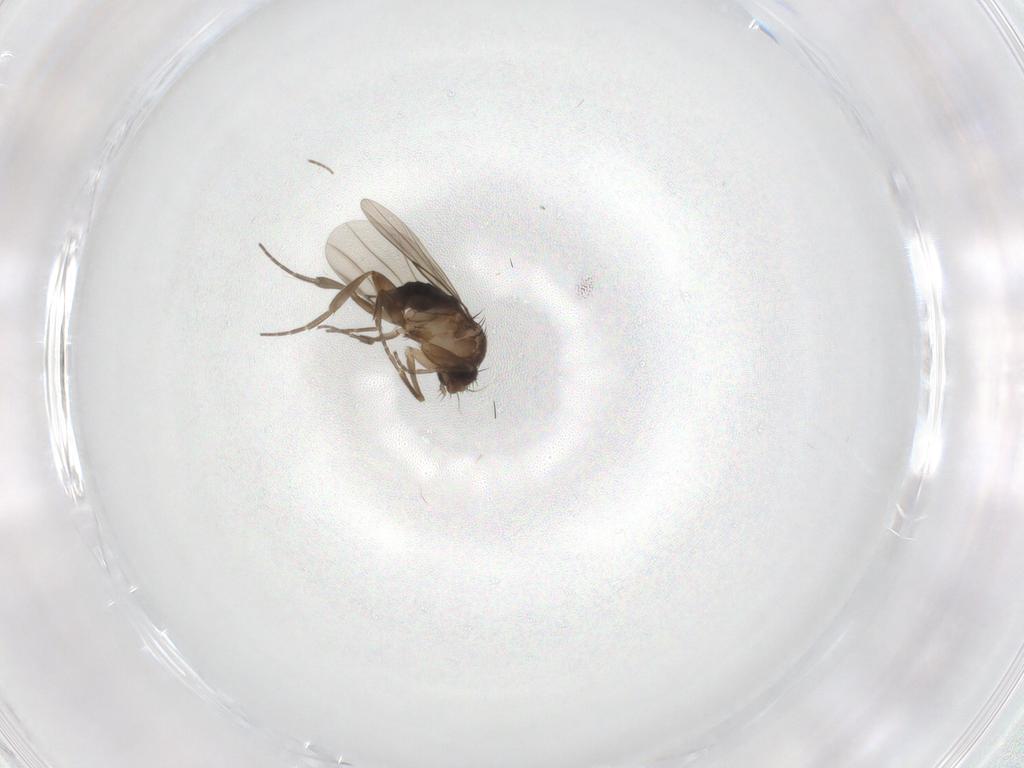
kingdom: Animalia
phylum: Arthropoda
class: Insecta
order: Diptera
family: Phoridae
